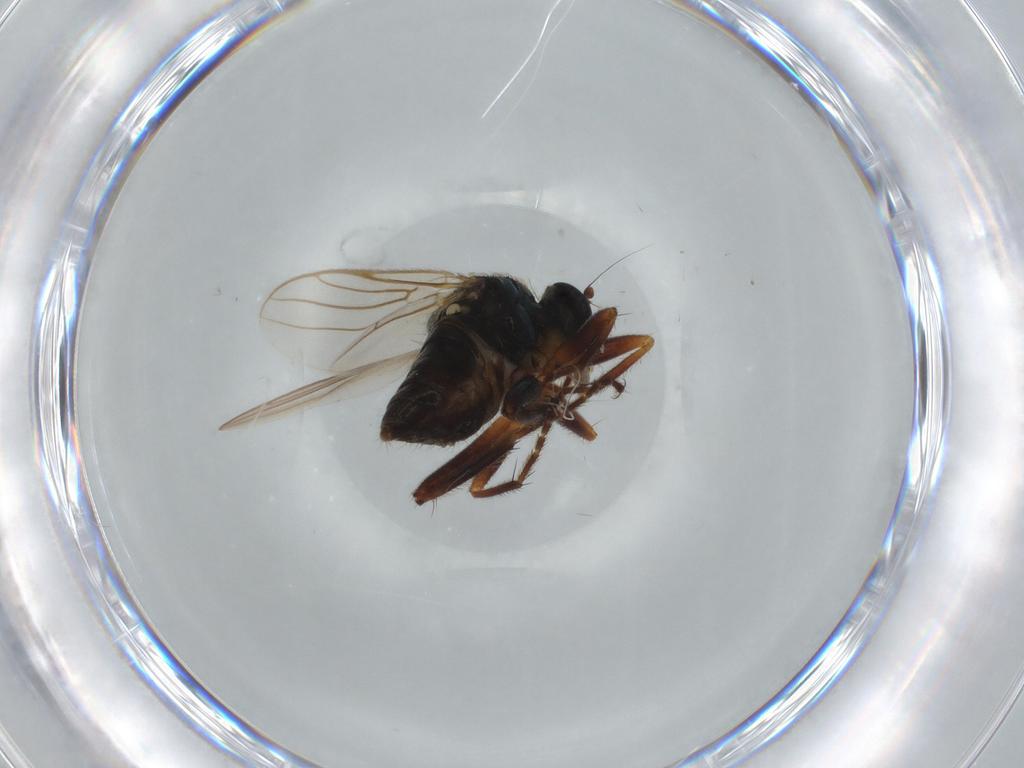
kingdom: Animalia
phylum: Arthropoda
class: Insecta
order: Diptera
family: Hybotidae
